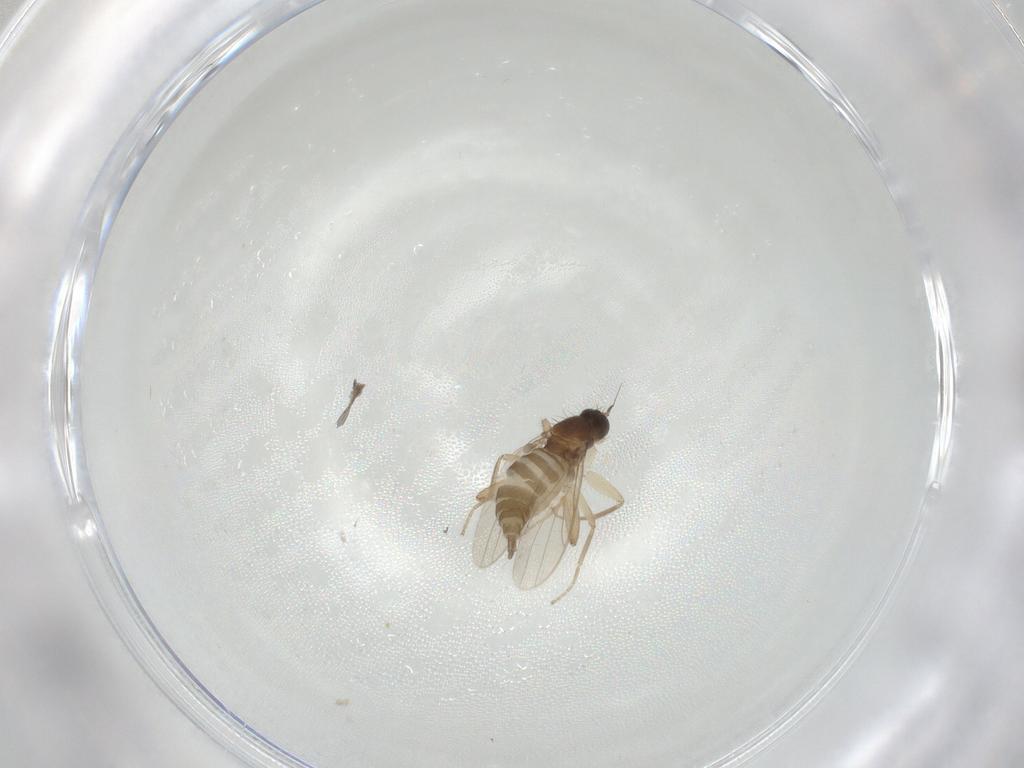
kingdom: Animalia
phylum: Arthropoda
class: Insecta
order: Diptera
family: Hybotidae
